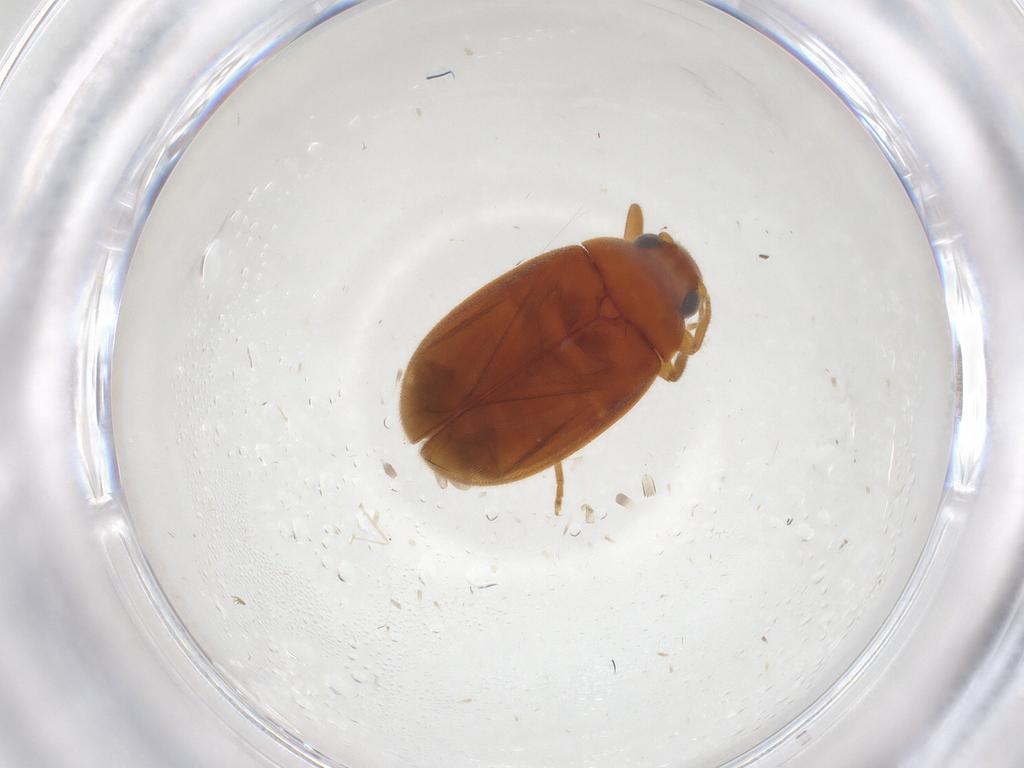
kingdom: Animalia
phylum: Arthropoda
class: Insecta
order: Coleoptera
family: Scirtidae
